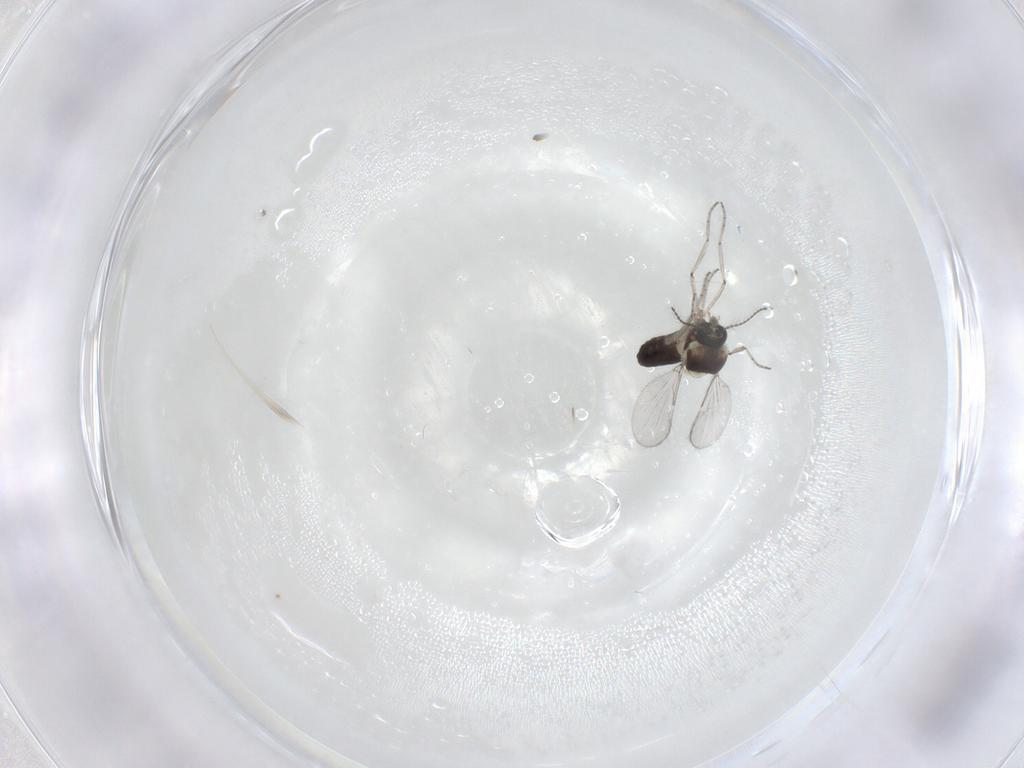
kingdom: Animalia
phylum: Arthropoda
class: Insecta
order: Diptera
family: Ceratopogonidae
